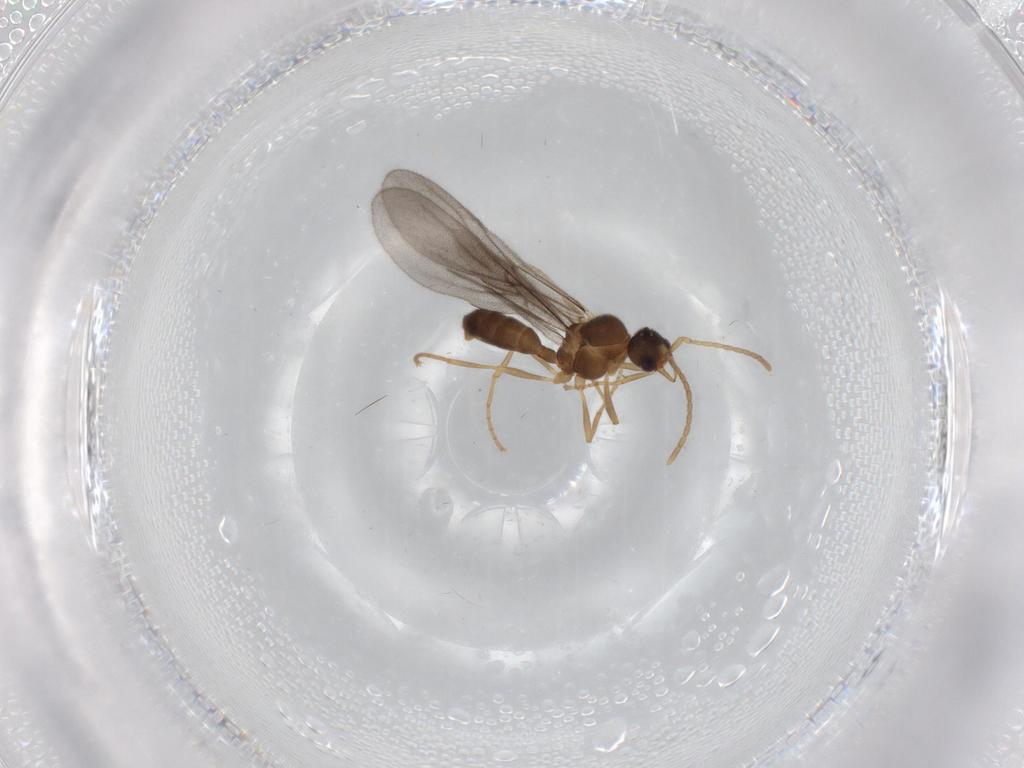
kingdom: Animalia
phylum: Arthropoda
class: Insecta
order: Hymenoptera
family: Formicidae
